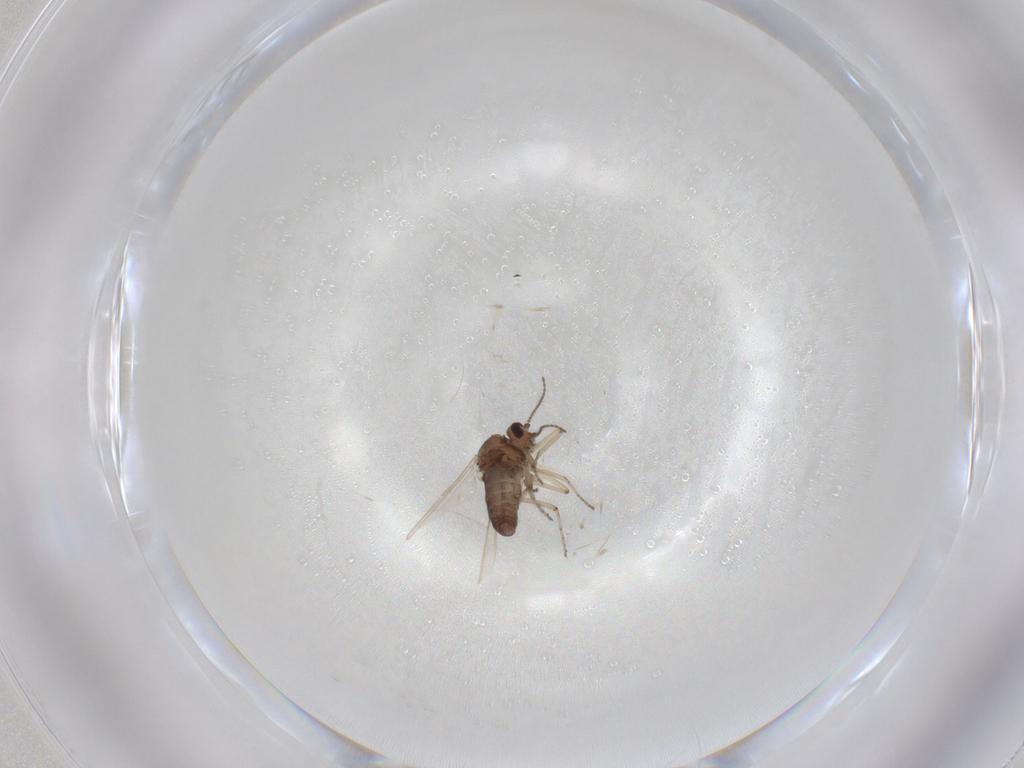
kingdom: Animalia
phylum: Arthropoda
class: Insecta
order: Diptera
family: Ceratopogonidae
